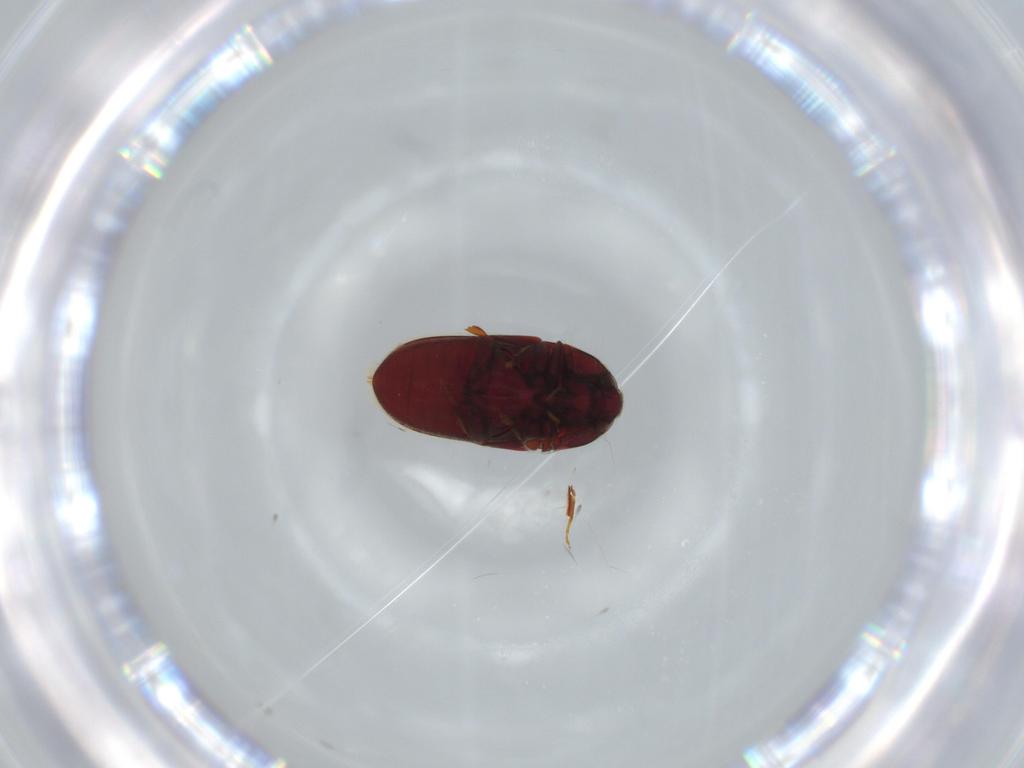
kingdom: Animalia
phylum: Arthropoda
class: Insecta
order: Coleoptera
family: Throscidae
